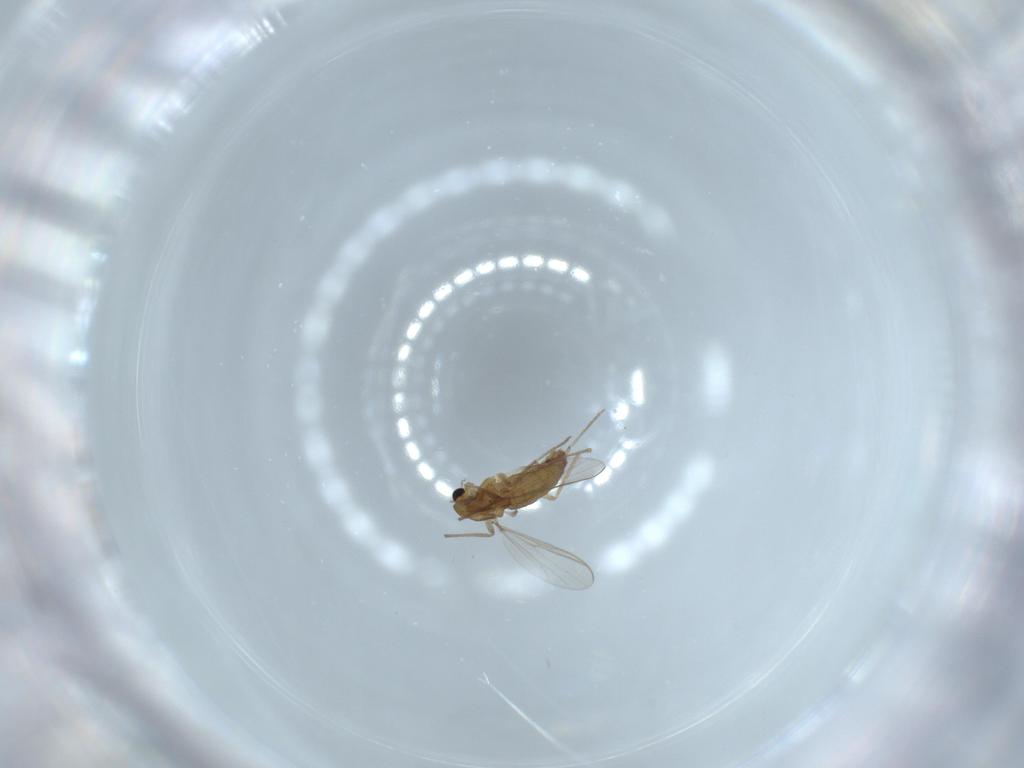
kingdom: Animalia
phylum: Arthropoda
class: Insecta
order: Diptera
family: Chironomidae
